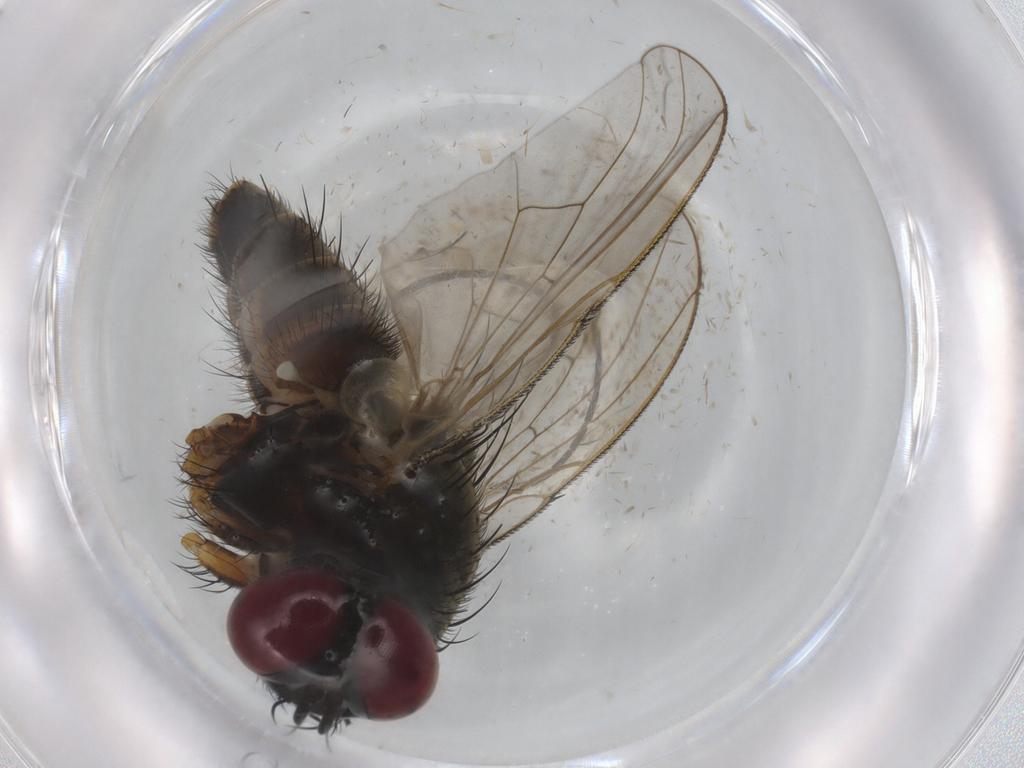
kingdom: Animalia
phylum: Arthropoda
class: Insecta
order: Diptera
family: Muscidae
